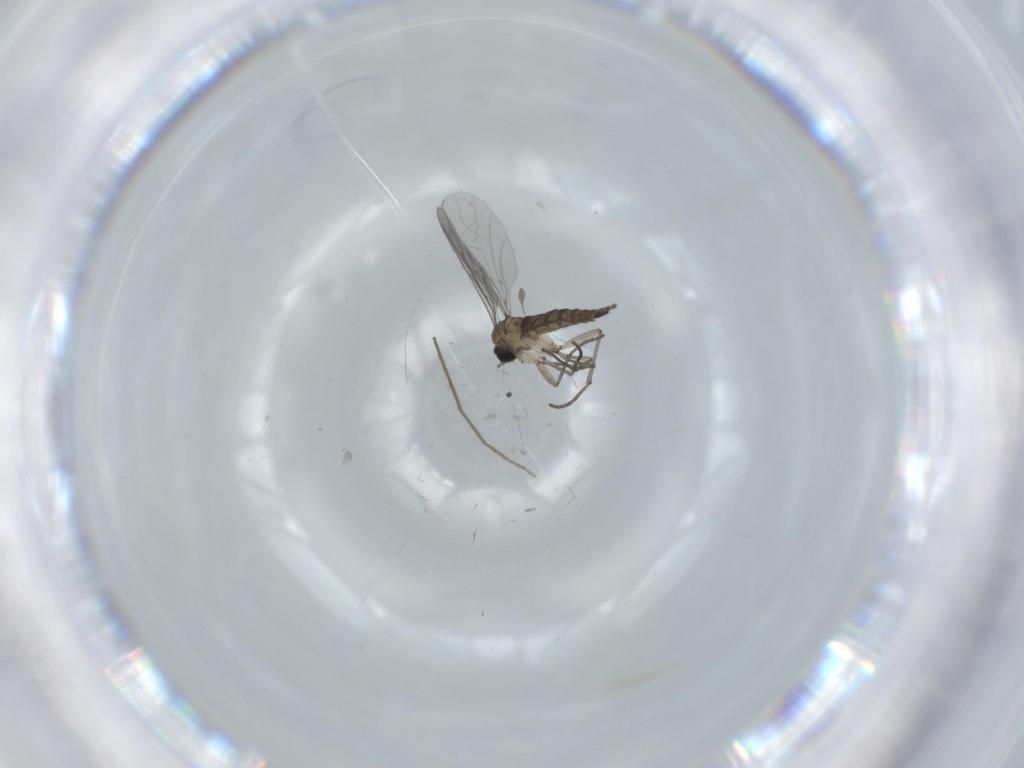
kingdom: Animalia
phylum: Arthropoda
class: Insecta
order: Diptera
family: Sciaridae
